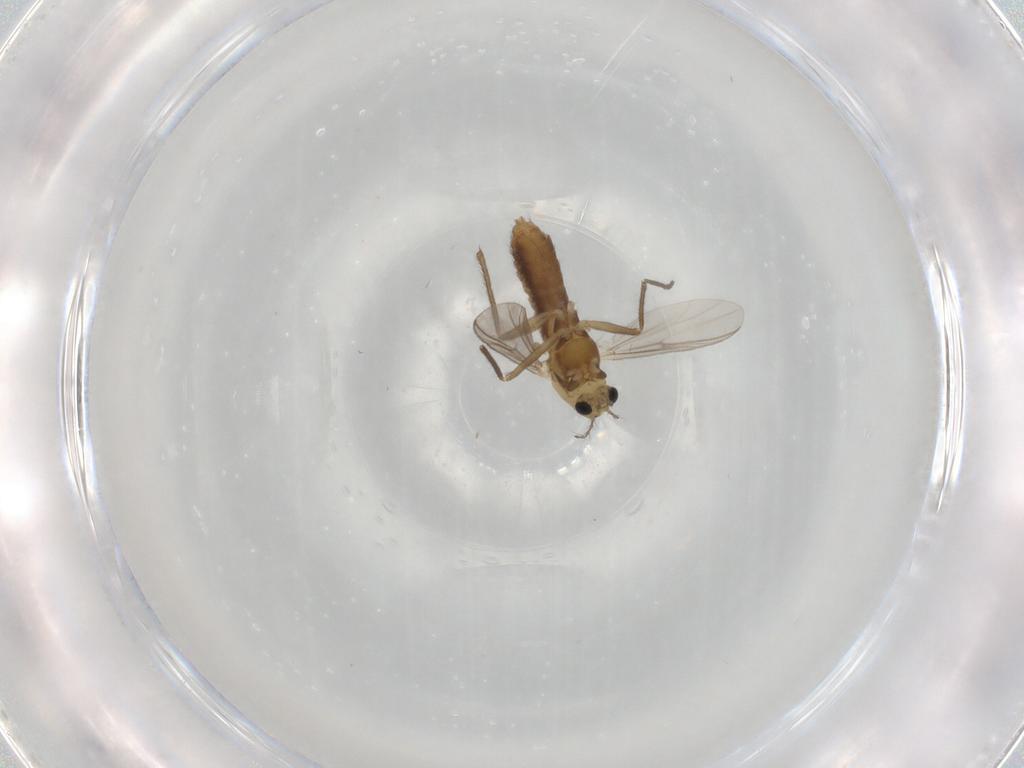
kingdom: Animalia
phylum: Arthropoda
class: Insecta
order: Diptera
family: Chironomidae
